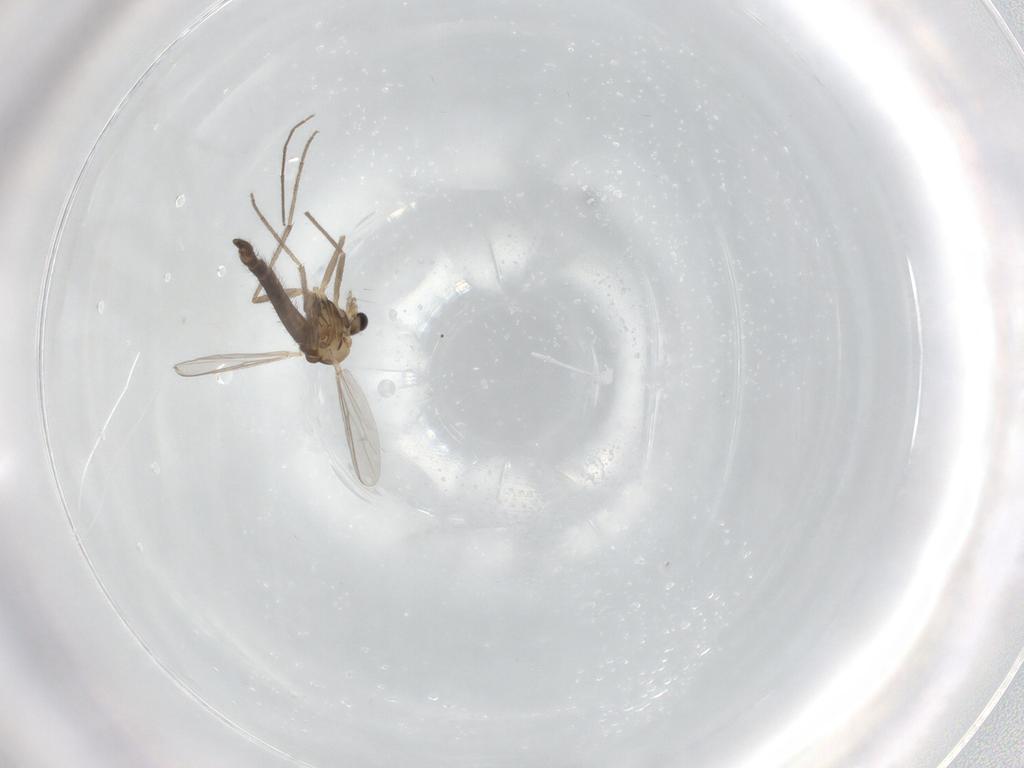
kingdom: Animalia
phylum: Arthropoda
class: Insecta
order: Diptera
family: Chironomidae
